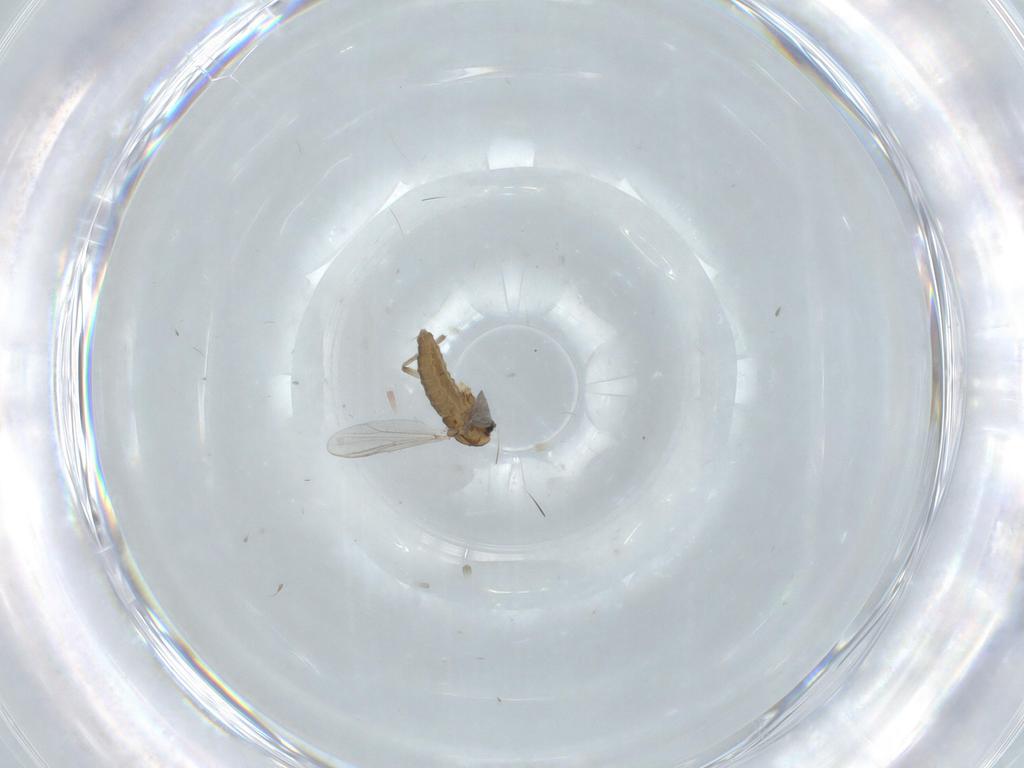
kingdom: Animalia
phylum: Arthropoda
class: Insecta
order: Diptera
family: Chironomidae
